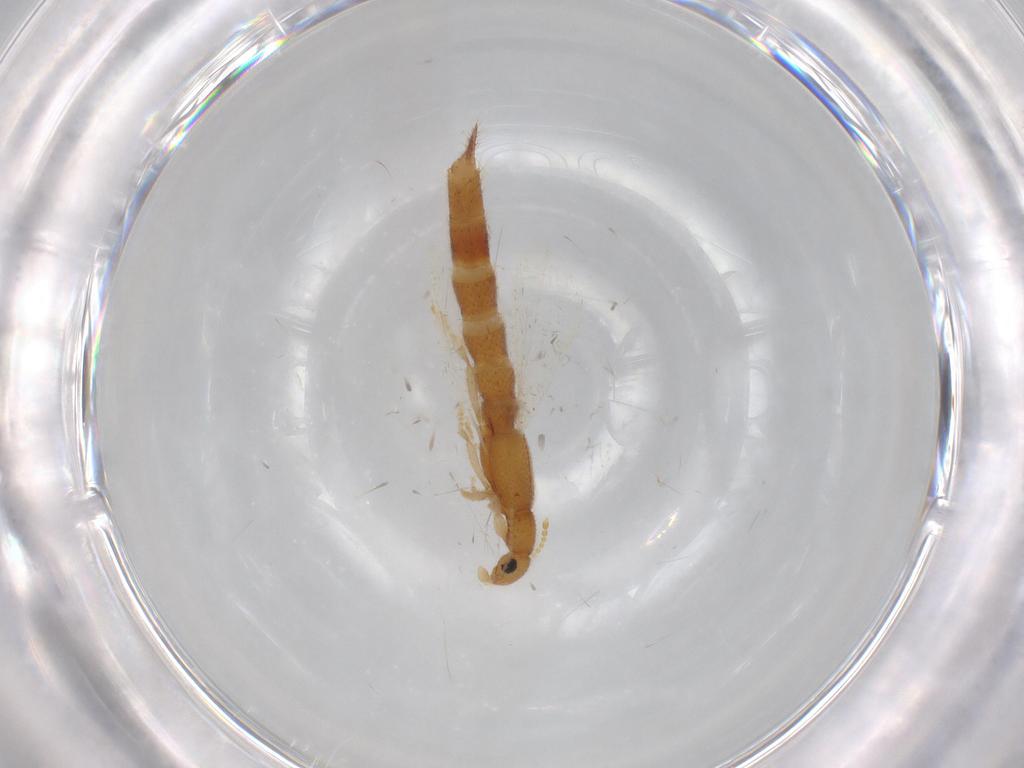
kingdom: Animalia
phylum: Arthropoda
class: Insecta
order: Coleoptera
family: Staphylinidae
